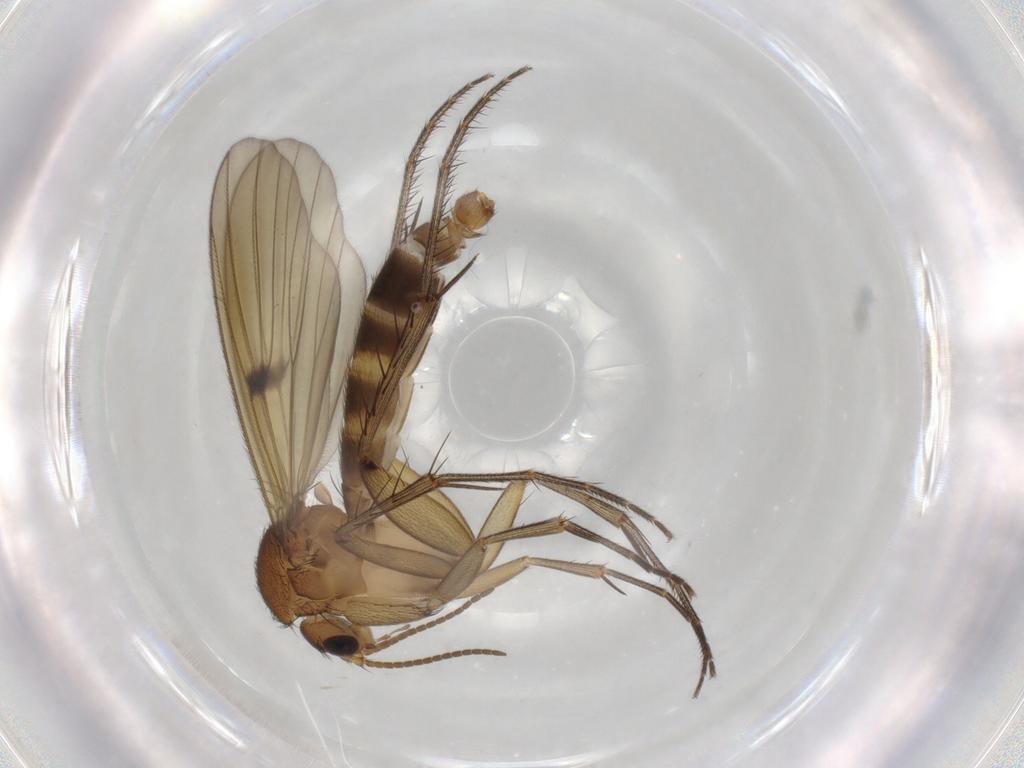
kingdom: Animalia
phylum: Arthropoda
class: Insecta
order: Diptera
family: Mycetophilidae
